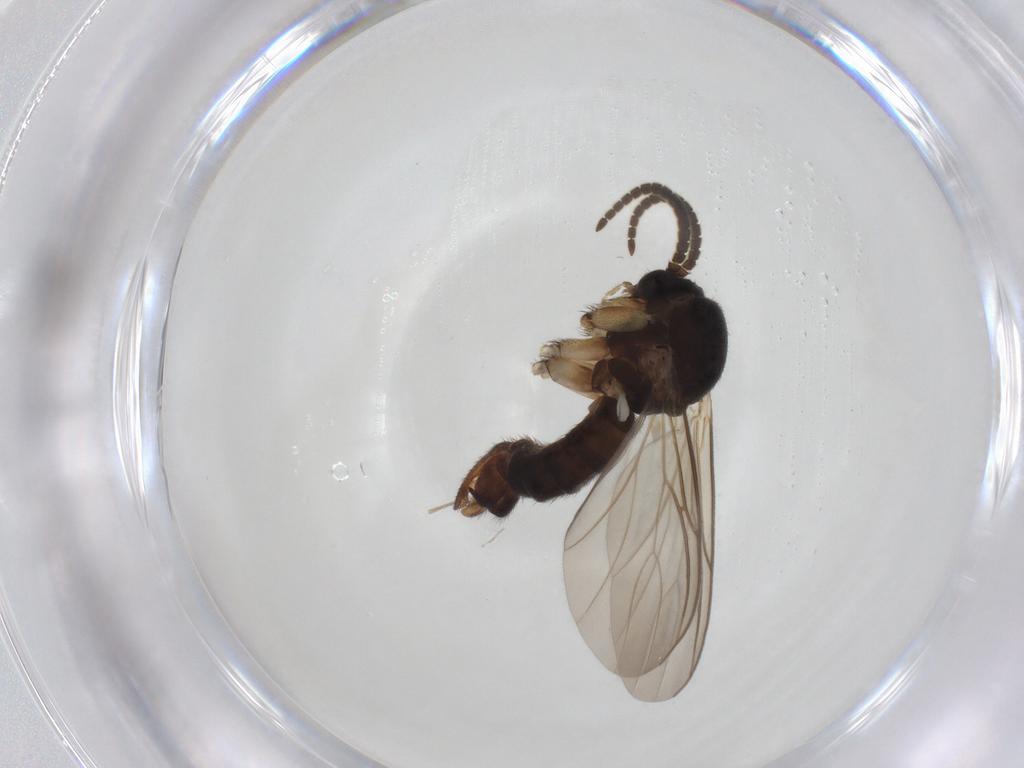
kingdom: Animalia
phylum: Arthropoda
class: Insecta
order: Diptera
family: Mycetophilidae
